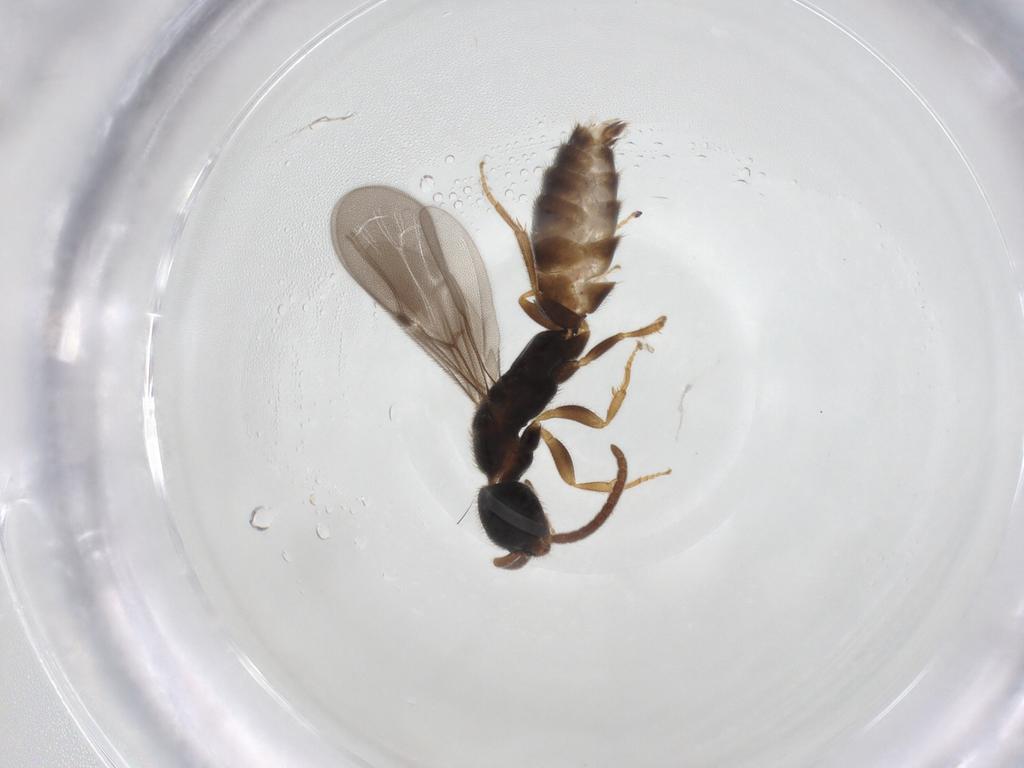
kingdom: Animalia
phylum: Arthropoda
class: Insecta
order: Hymenoptera
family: Bethylidae
